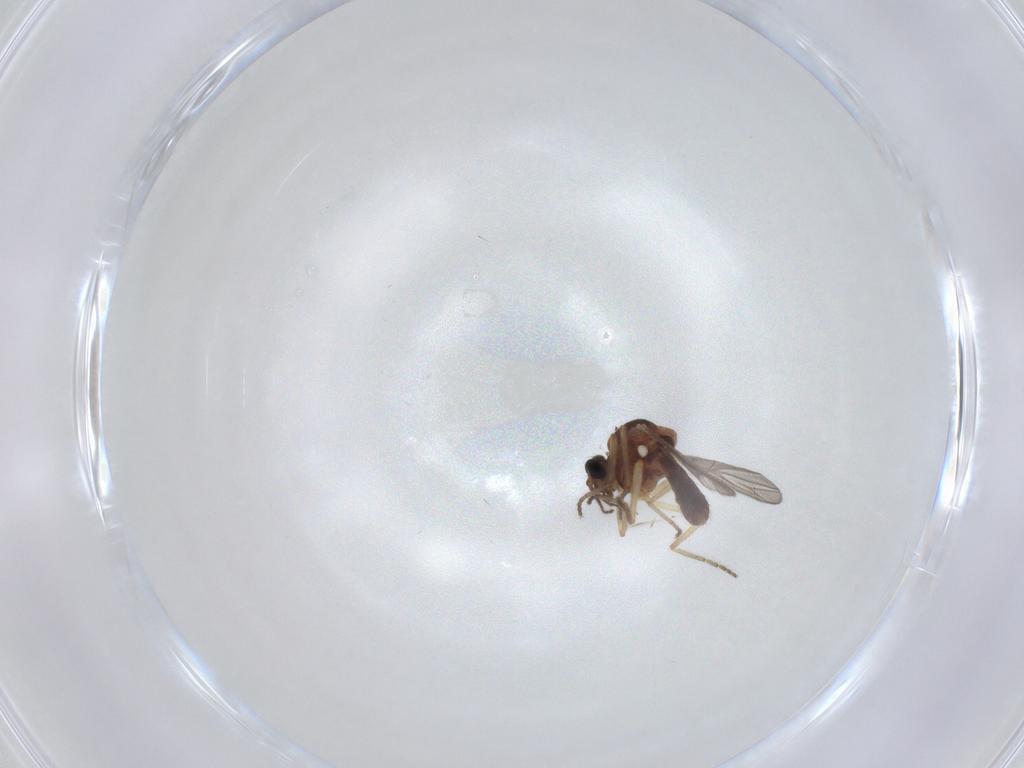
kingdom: Animalia
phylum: Arthropoda
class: Insecta
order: Diptera
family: Ceratopogonidae
